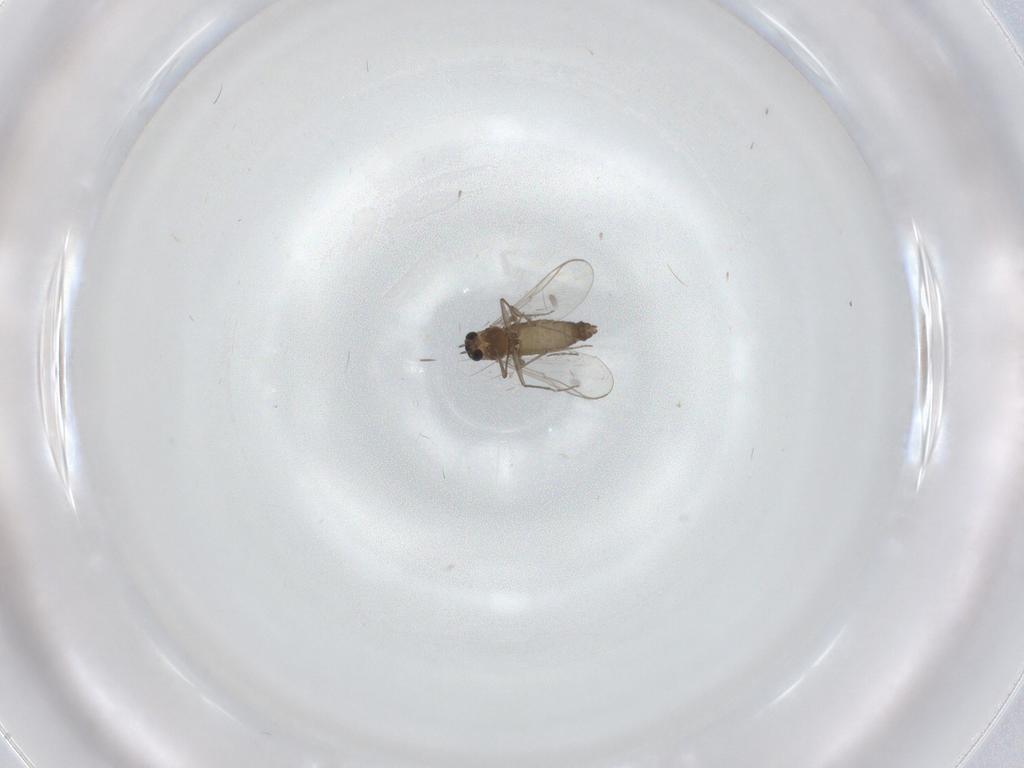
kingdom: Animalia
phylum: Arthropoda
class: Insecta
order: Diptera
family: Chironomidae
